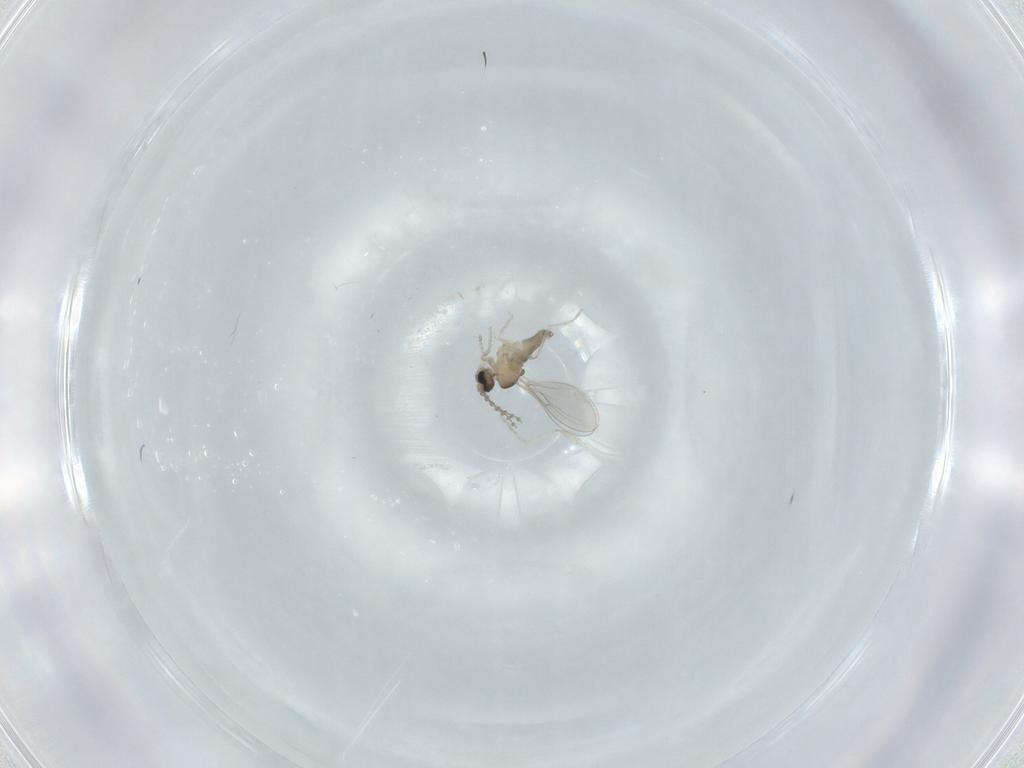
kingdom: Animalia
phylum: Arthropoda
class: Insecta
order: Diptera
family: Cecidomyiidae
